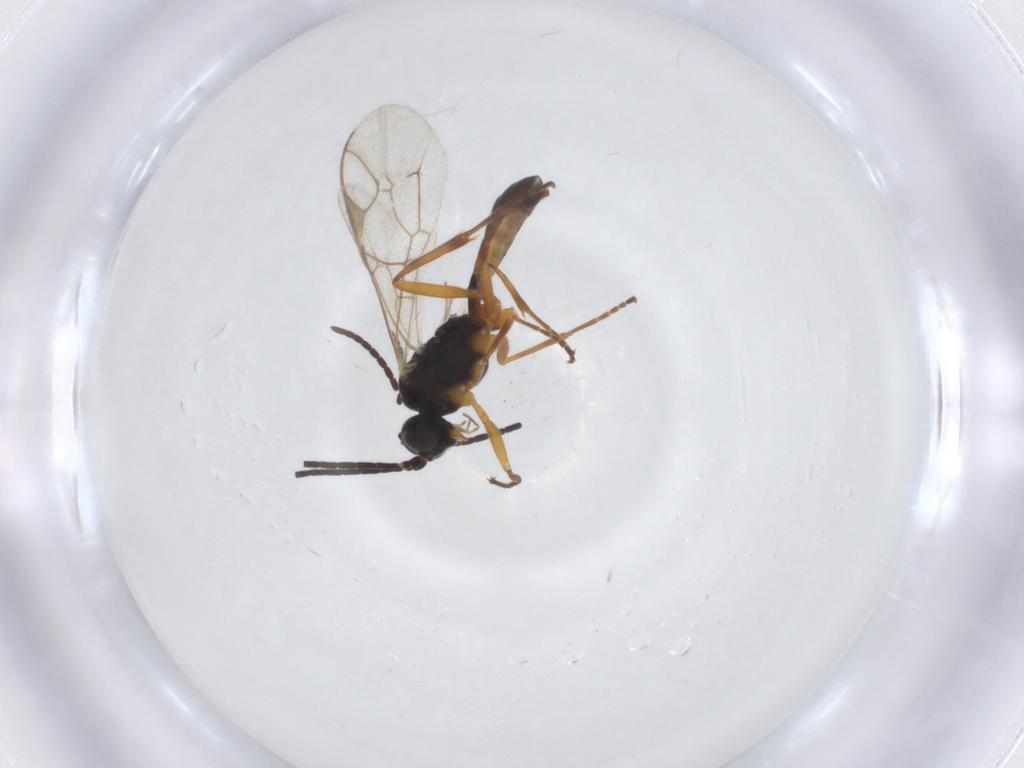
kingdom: Animalia
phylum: Arthropoda
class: Insecta
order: Hymenoptera
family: Ichneumonidae
